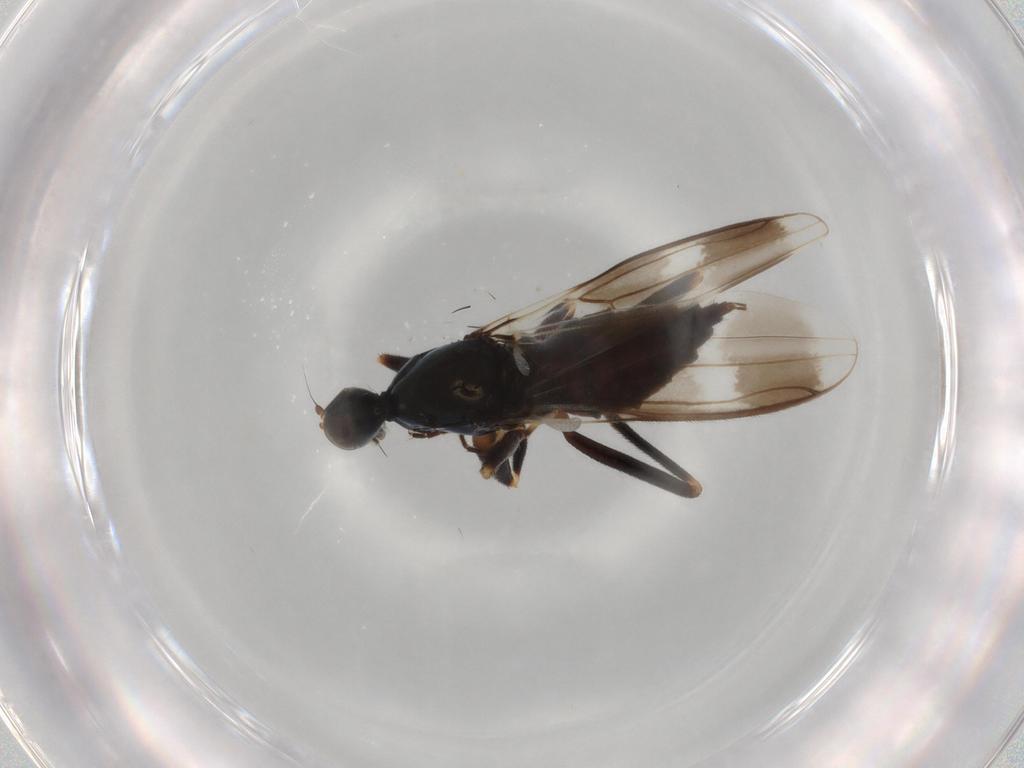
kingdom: Animalia
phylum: Arthropoda
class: Insecta
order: Diptera
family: Hybotidae
